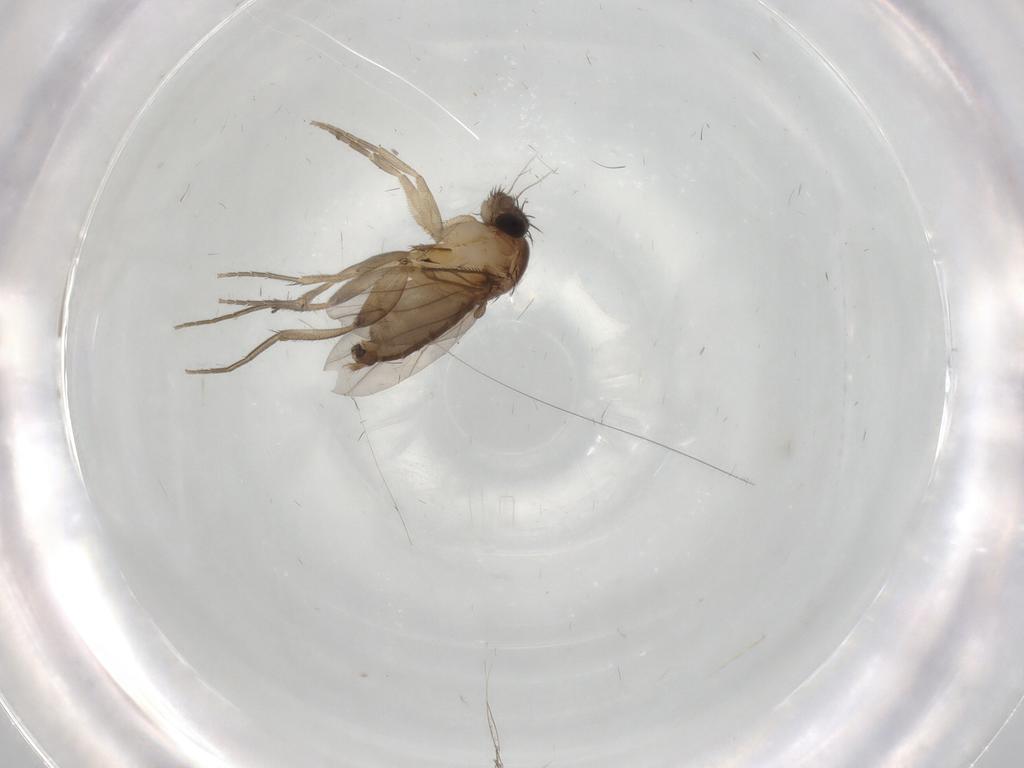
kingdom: Animalia
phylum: Arthropoda
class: Insecta
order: Diptera
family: Phoridae
